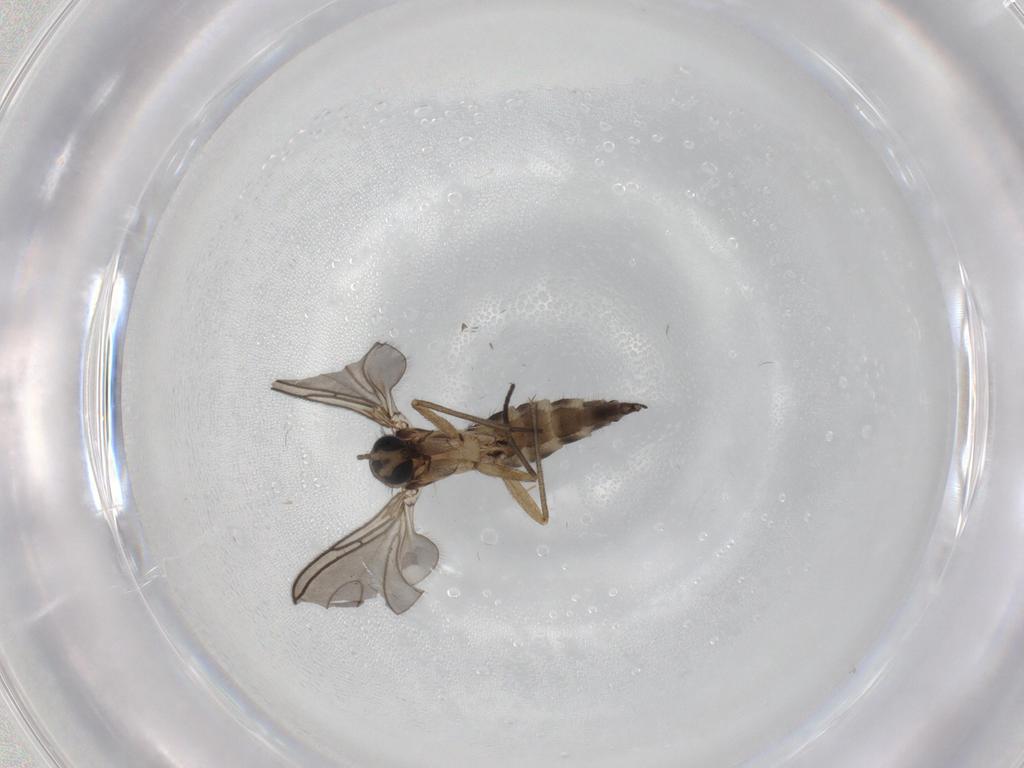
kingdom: Animalia
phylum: Arthropoda
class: Insecta
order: Diptera
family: Sciaridae
